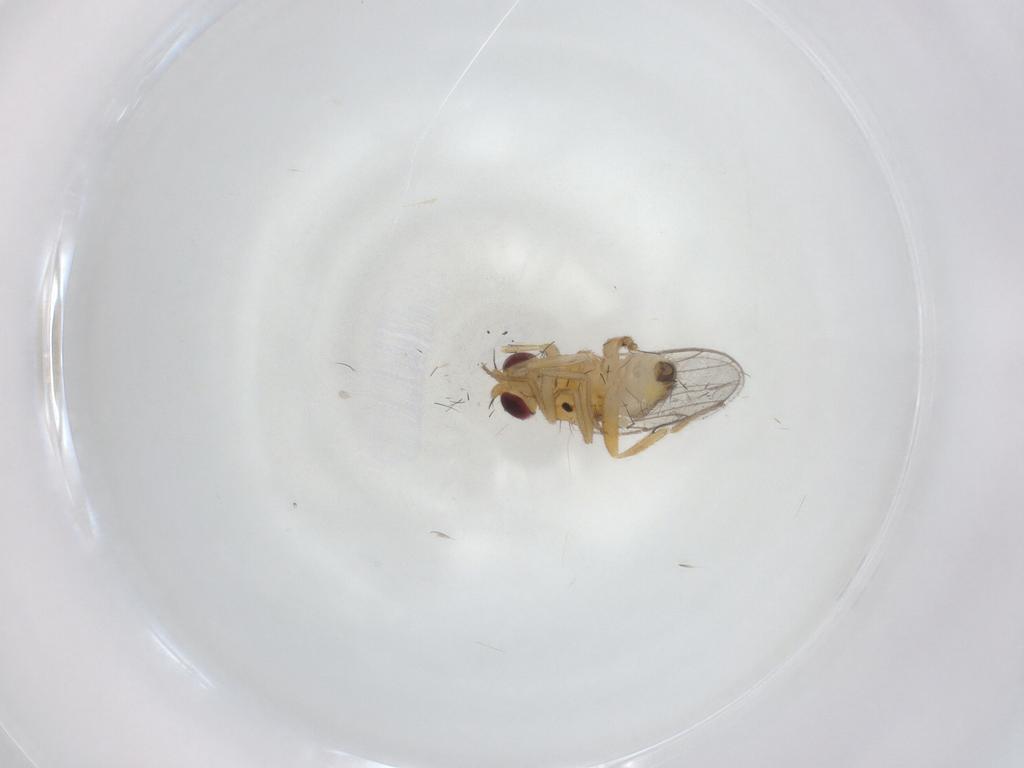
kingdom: Animalia
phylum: Arthropoda
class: Insecta
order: Diptera
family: Chloropidae
